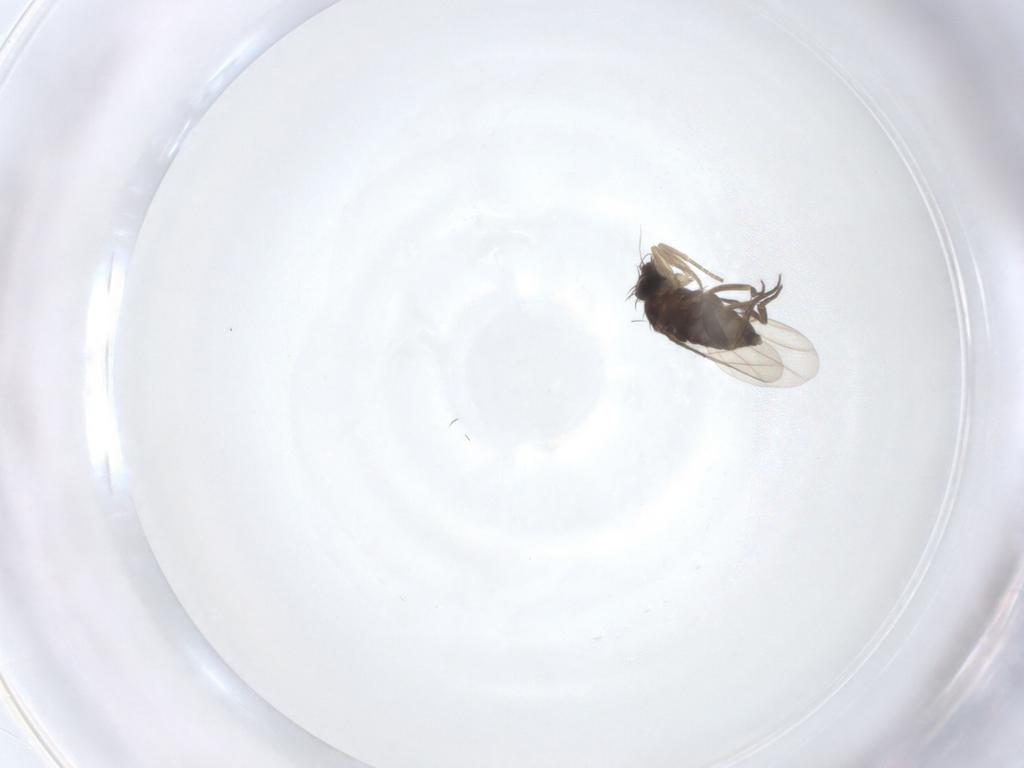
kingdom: Animalia
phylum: Arthropoda
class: Insecta
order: Diptera
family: Phoridae
